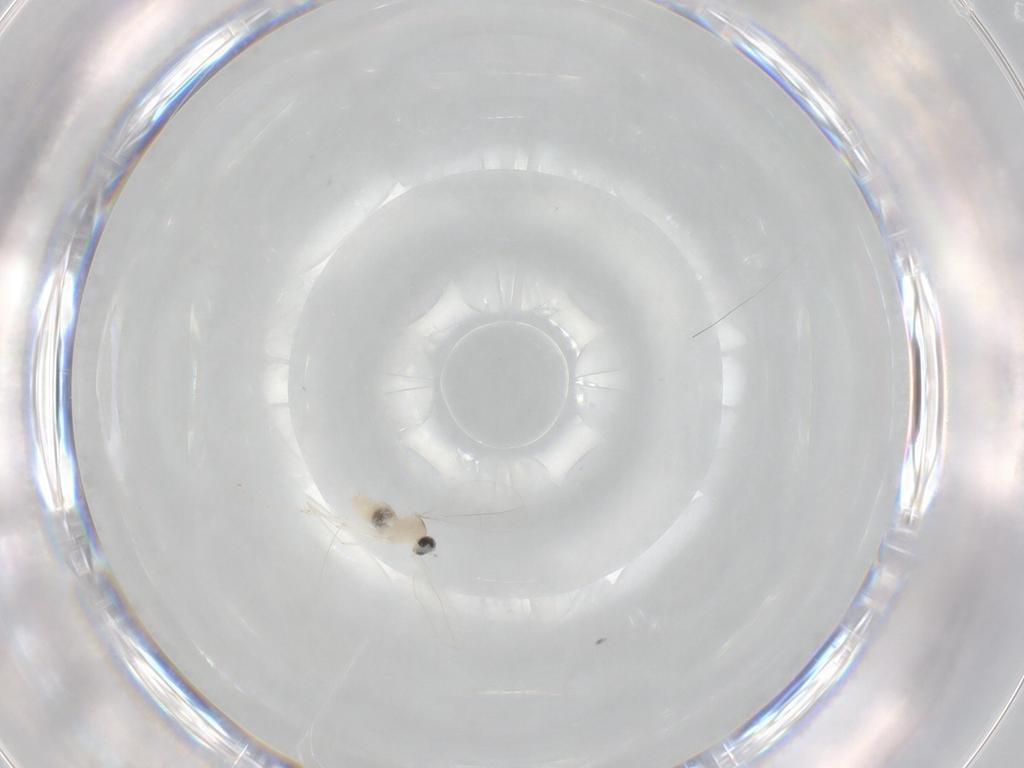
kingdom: Animalia
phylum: Arthropoda
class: Insecta
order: Diptera
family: Cecidomyiidae
